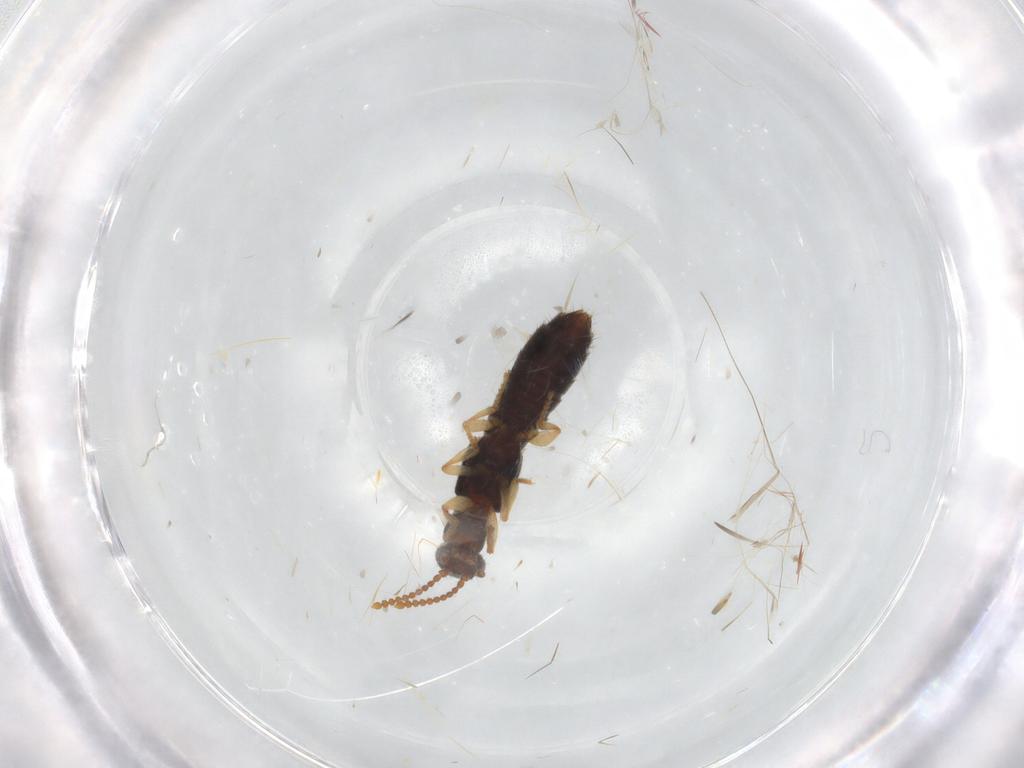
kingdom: Animalia
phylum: Arthropoda
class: Insecta
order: Coleoptera
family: Staphylinidae
